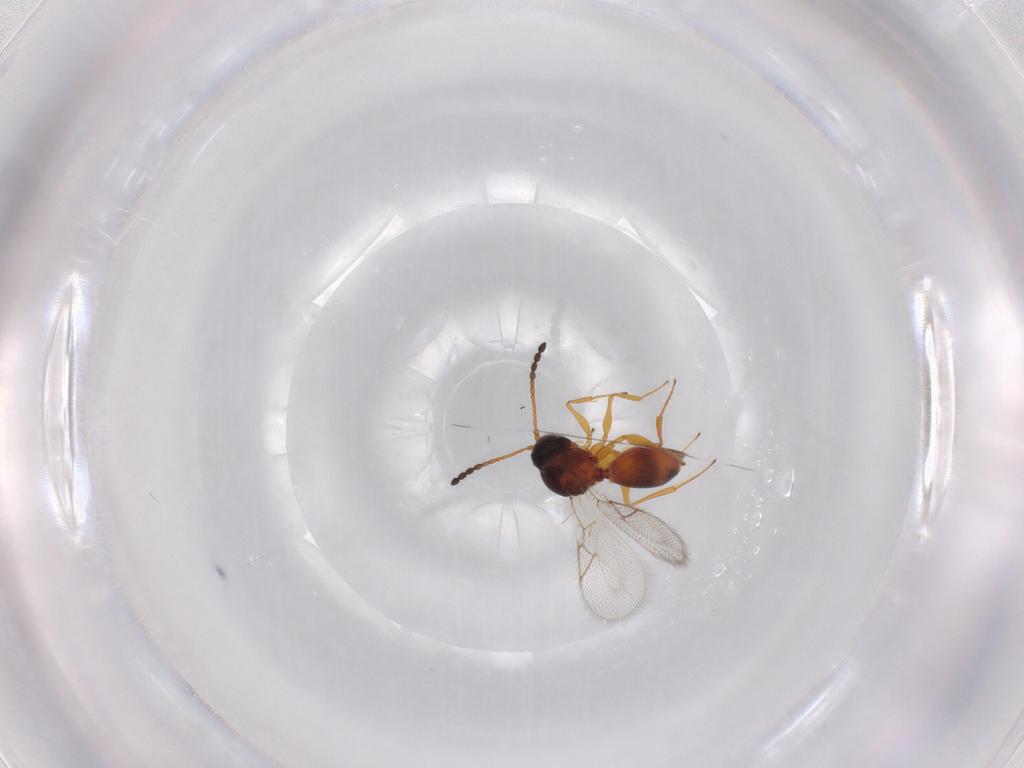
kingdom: Animalia
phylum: Arthropoda
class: Insecta
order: Hymenoptera
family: Figitidae
